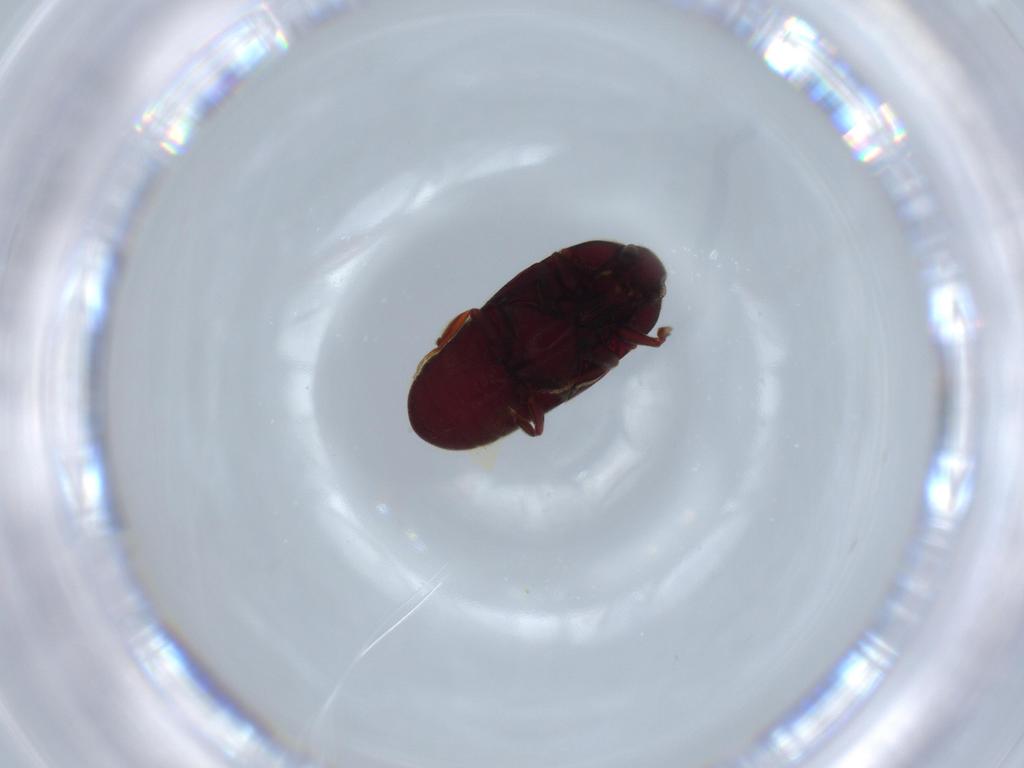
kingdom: Animalia
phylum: Arthropoda
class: Insecta
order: Coleoptera
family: Throscidae
